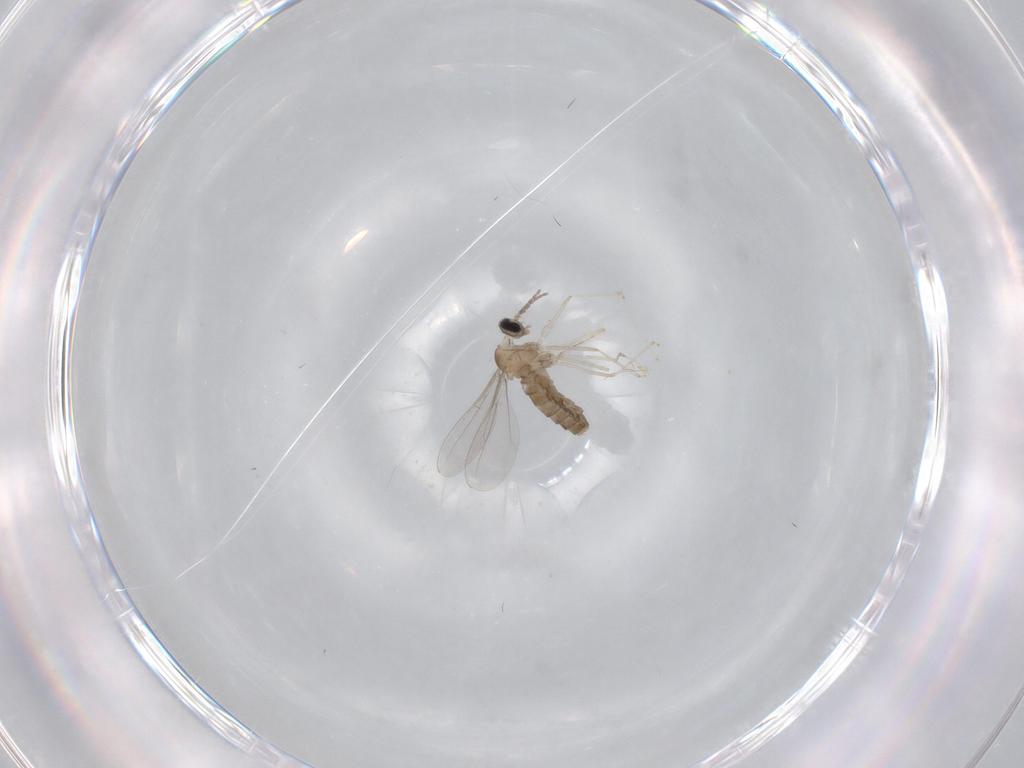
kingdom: Animalia
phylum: Arthropoda
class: Insecta
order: Diptera
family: Cecidomyiidae
